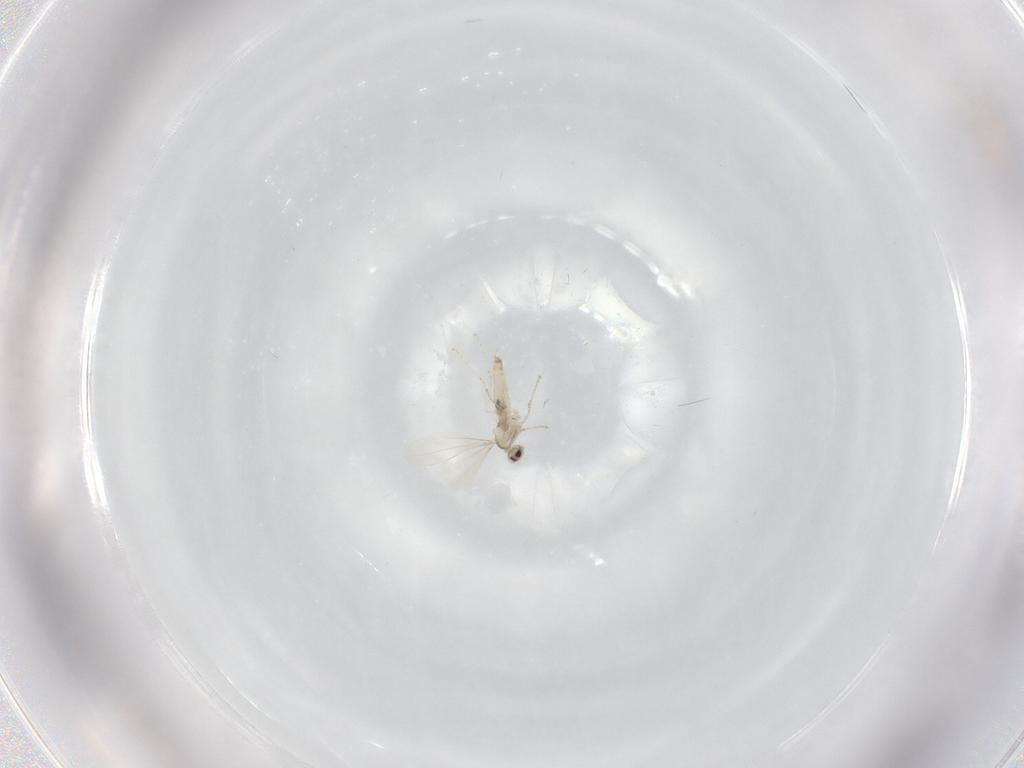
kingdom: Animalia
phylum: Arthropoda
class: Insecta
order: Diptera
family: Cecidomyiidae
